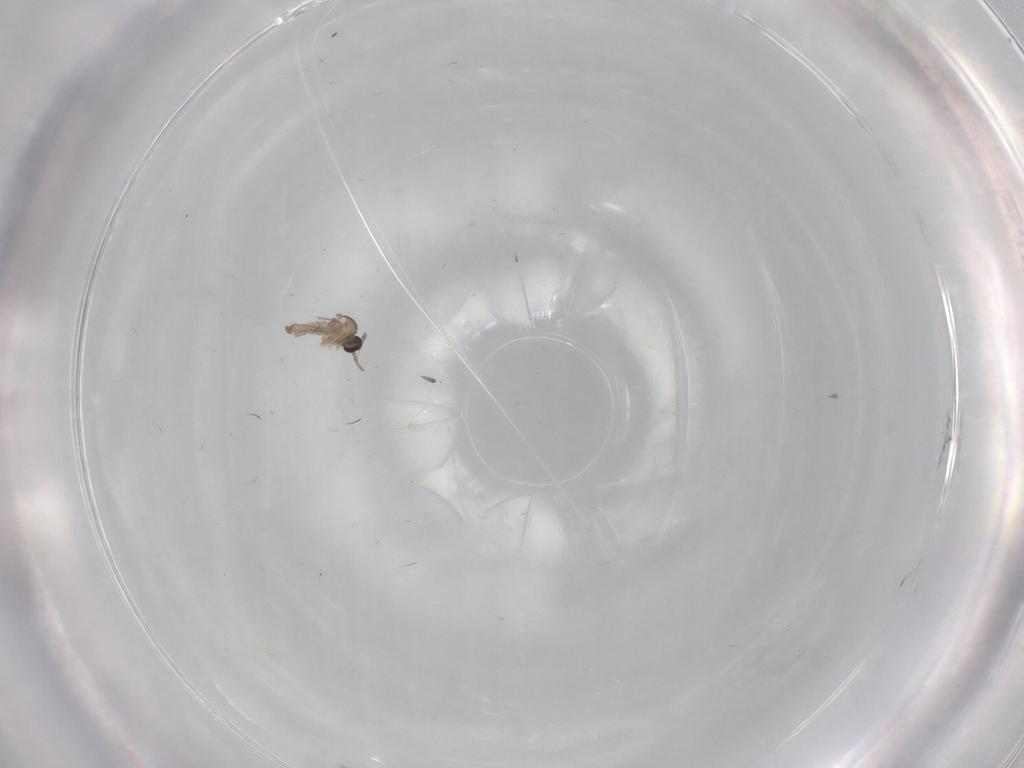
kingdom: Animalia
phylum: Arthropoda
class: Insecta
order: Diptera
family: Cecidomyiidae
